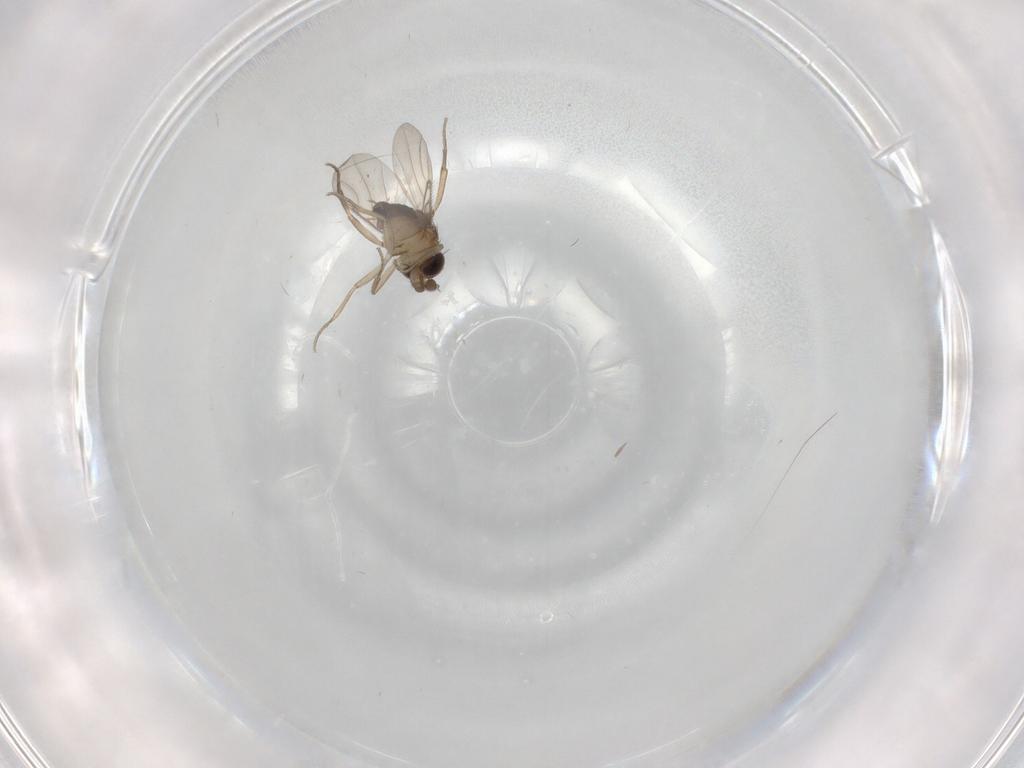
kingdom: Animalia
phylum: Arthropoda
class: Insecta
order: Diptera
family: Phoridae
